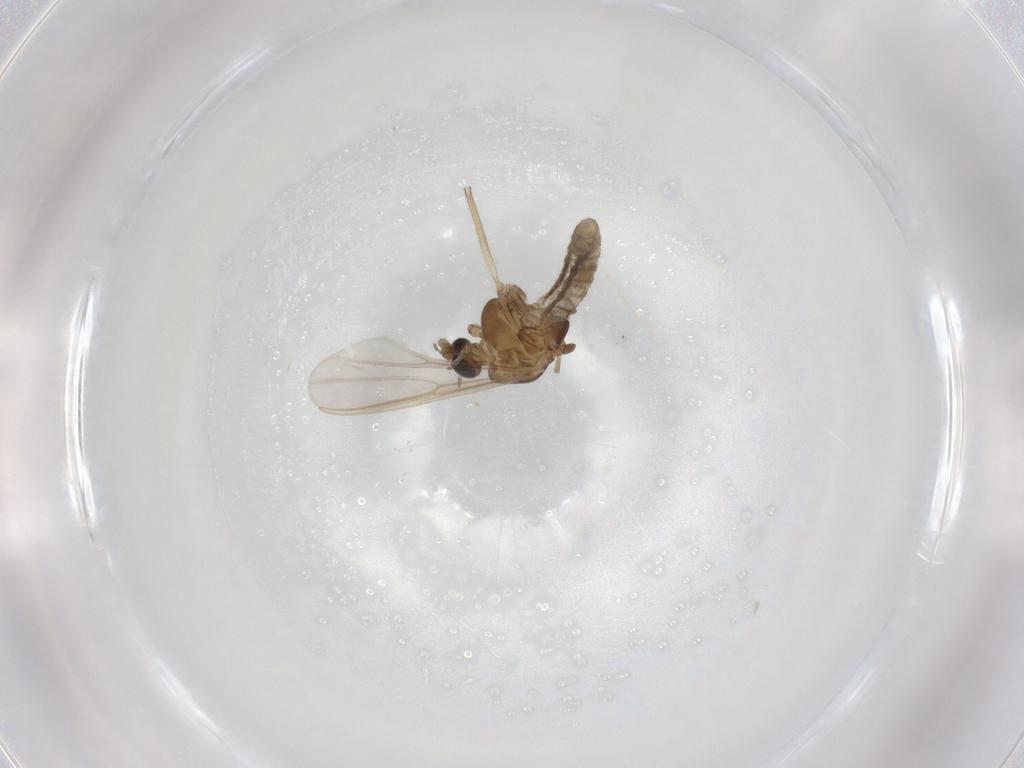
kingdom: Animalia
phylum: Arthropoda
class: Insecta
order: Diptera
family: Chironomidae
